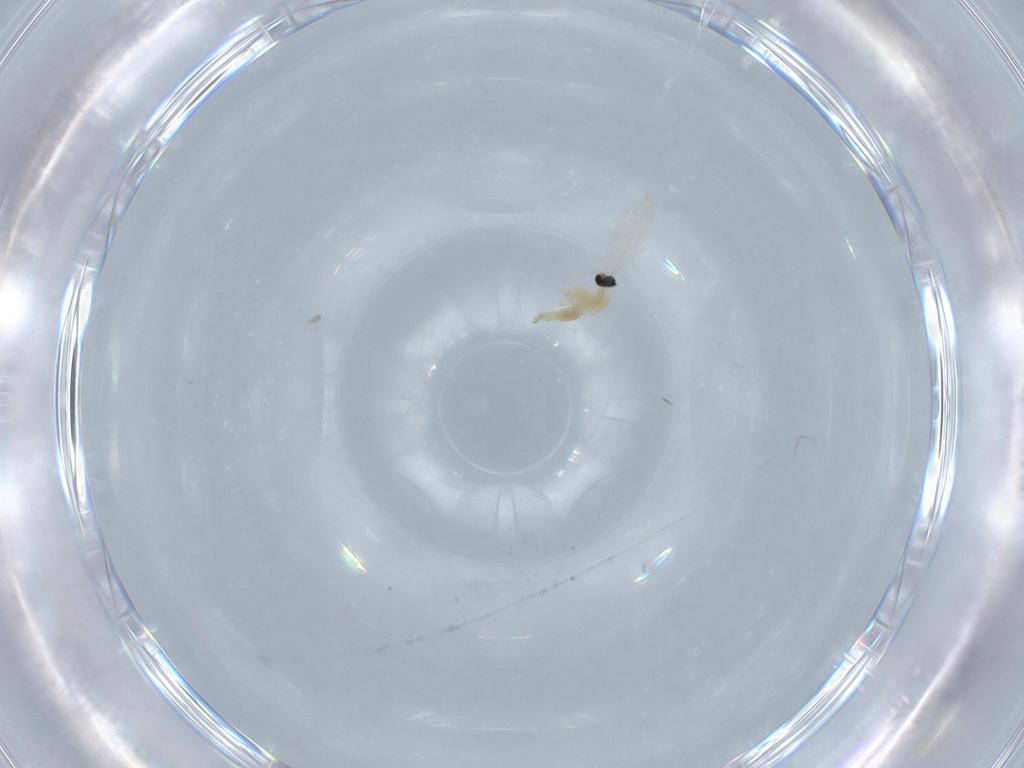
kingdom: Animalia
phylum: Arthropoda
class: Insecta
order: Diptera
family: Cecidomyiidae
